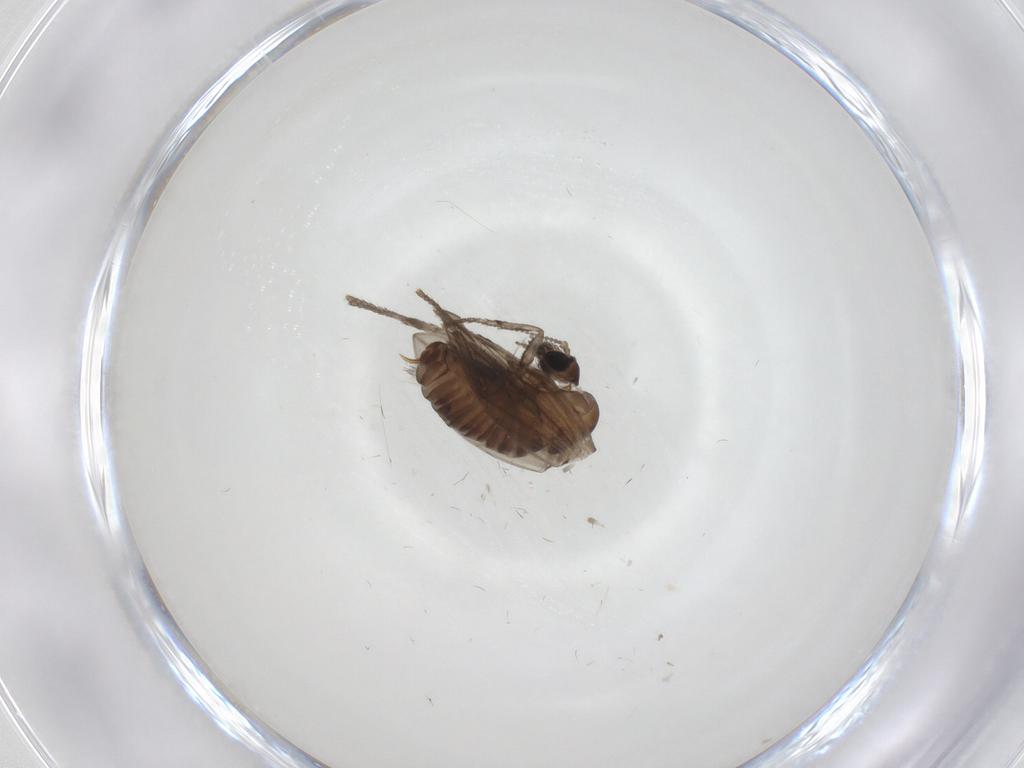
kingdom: Animalia
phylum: Arthropoda
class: Insecta
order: Diptera
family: Psychodidae
